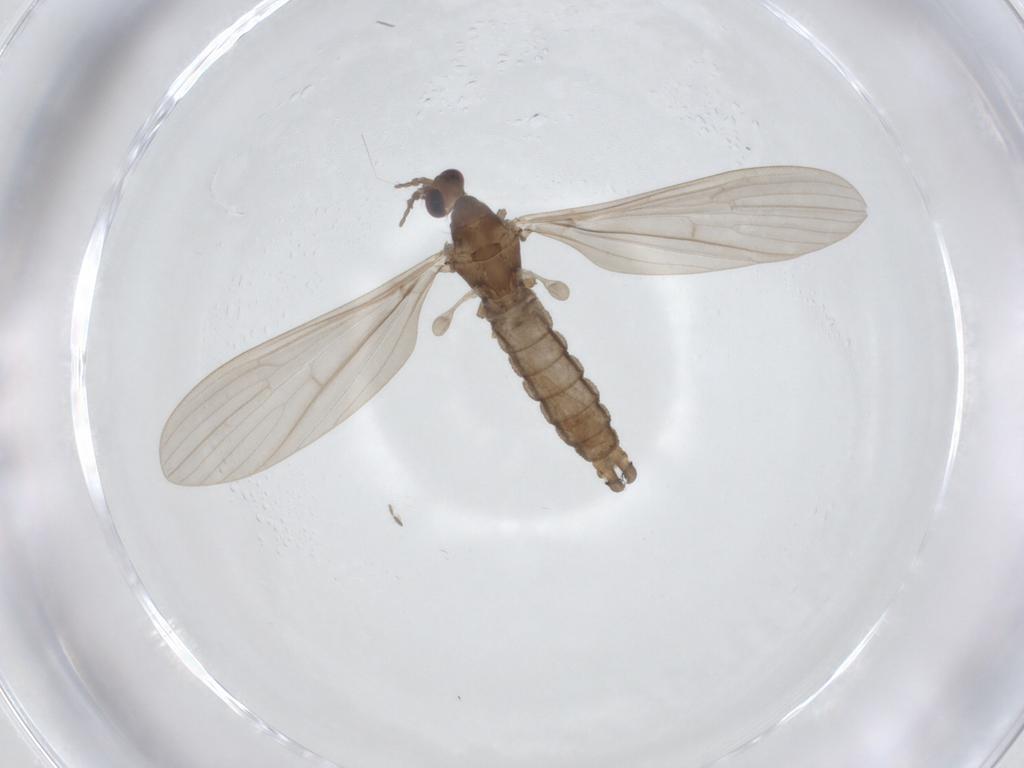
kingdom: Animalia
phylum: Arthropoda
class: Insecta
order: Diptera
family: Limoniidae
